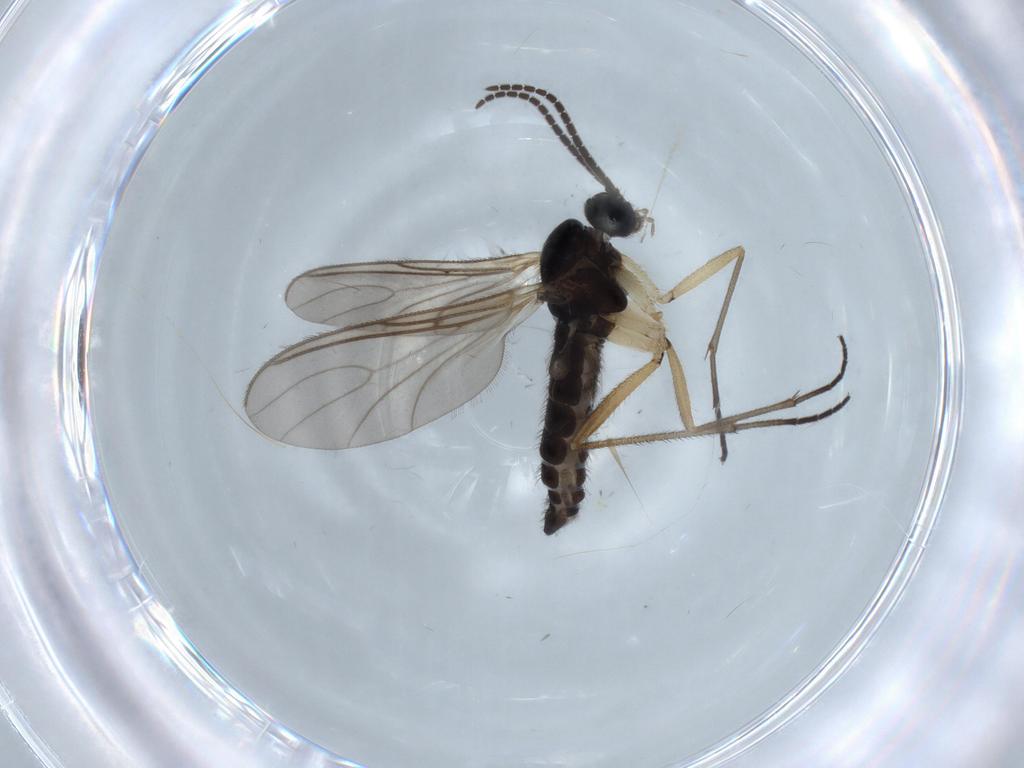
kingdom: Animalia
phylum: Arthropoda
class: Insecta
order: Diptera
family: Sciaridae
